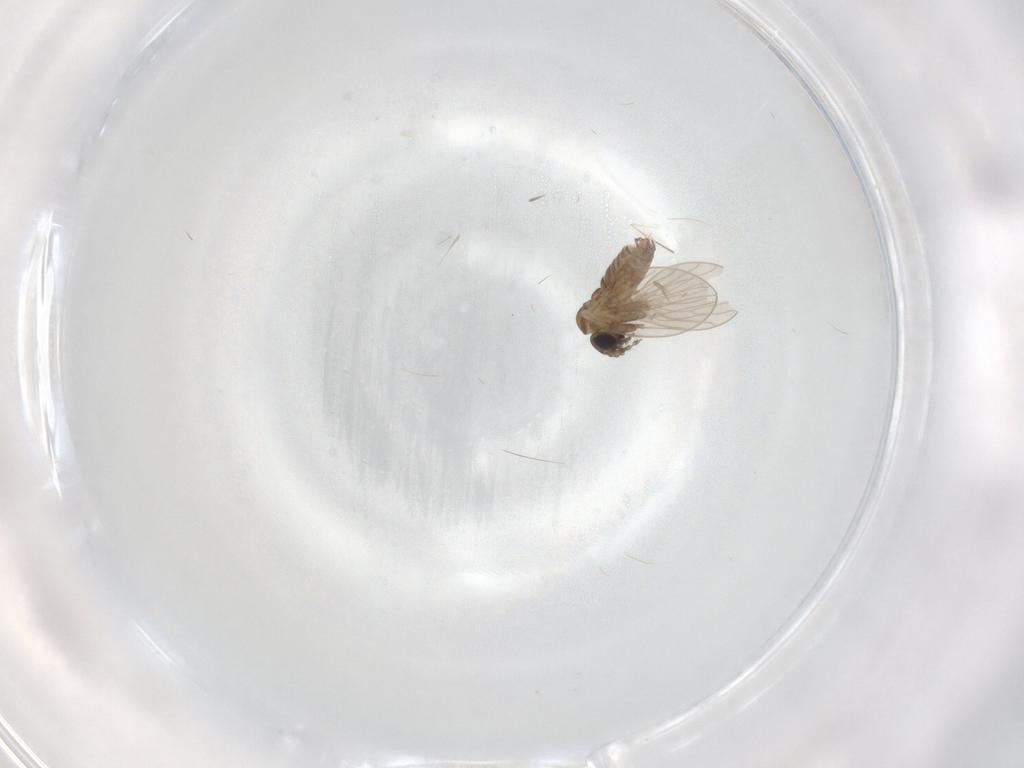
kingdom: Animalia
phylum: Arthropoda
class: Insecta
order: Diptera
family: Psychodidae
